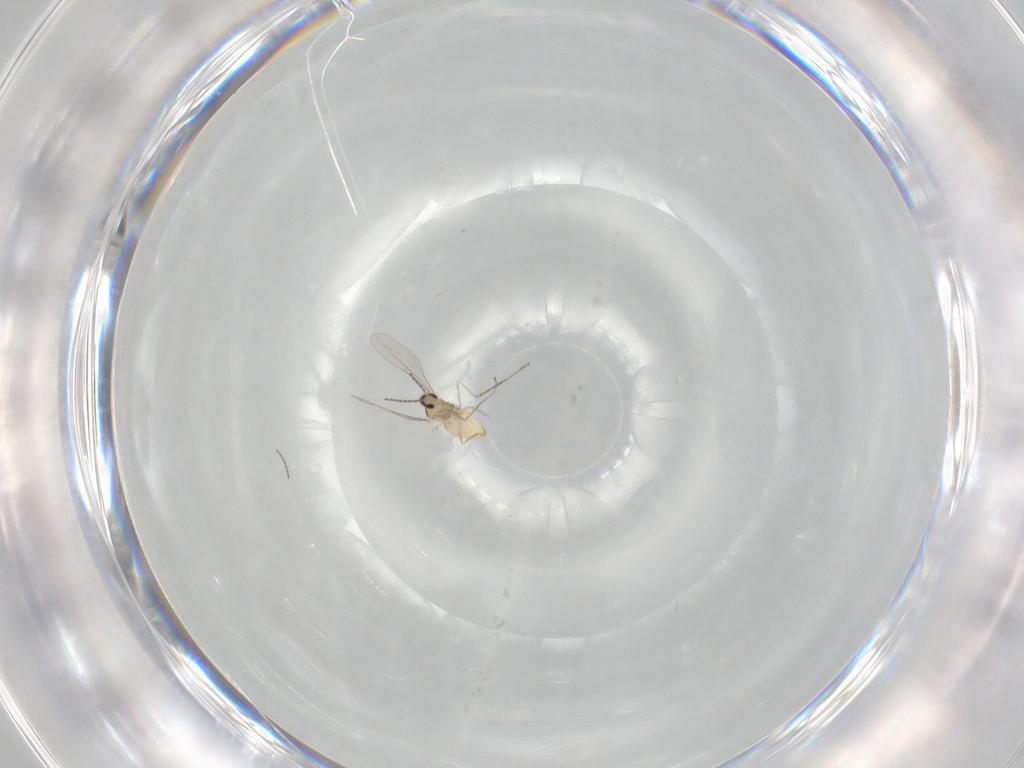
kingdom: Animalia
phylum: Arthropoda
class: Insecta
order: Diptera
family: Cecidomyiidae
